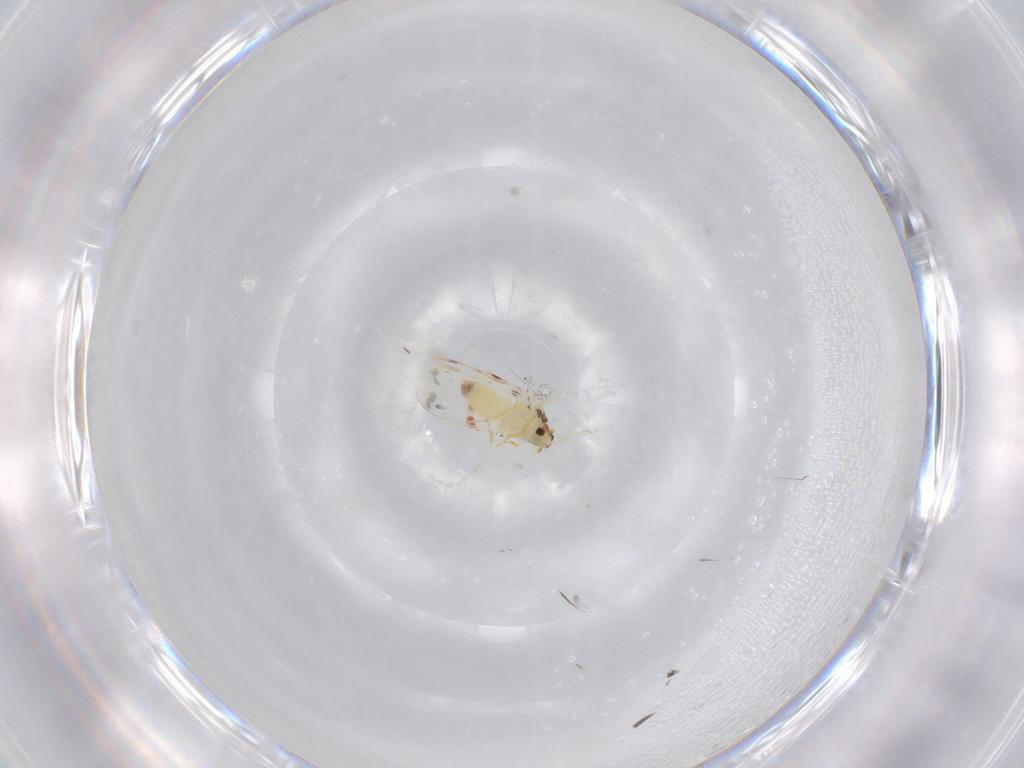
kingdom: Animalia
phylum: Arthropoda
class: Insecta
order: Hemiptera
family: Aleyrodidae
